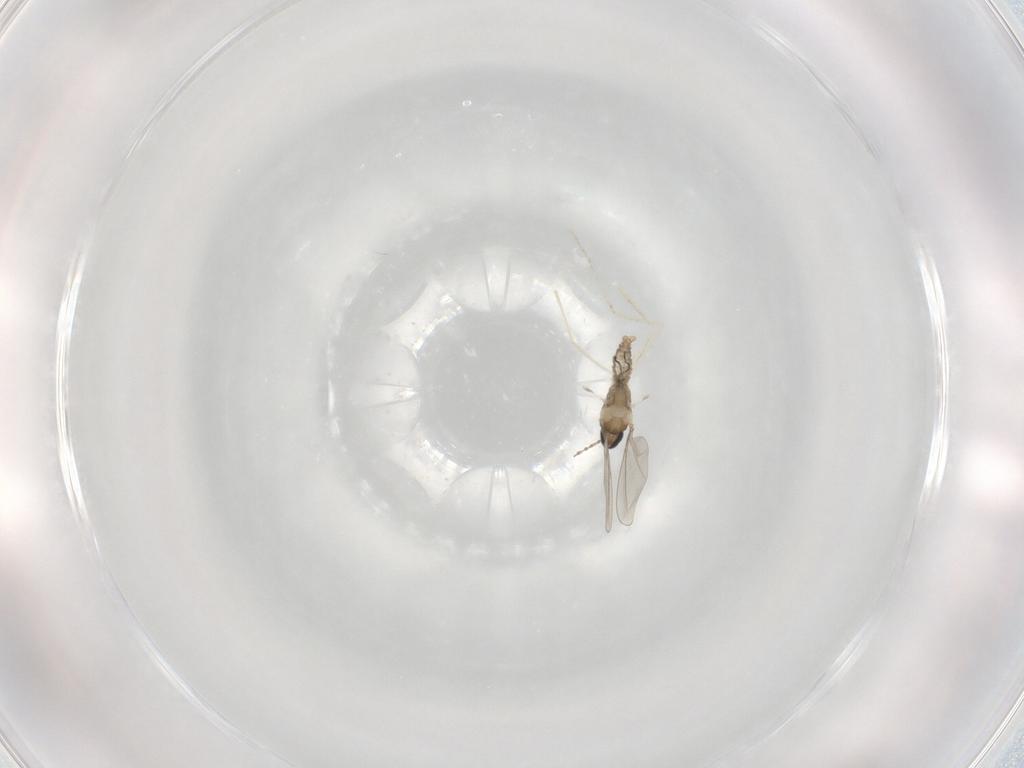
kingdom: Animalia
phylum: Arthropoda
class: Insecta
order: Diptera
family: Cecidomyiidae
